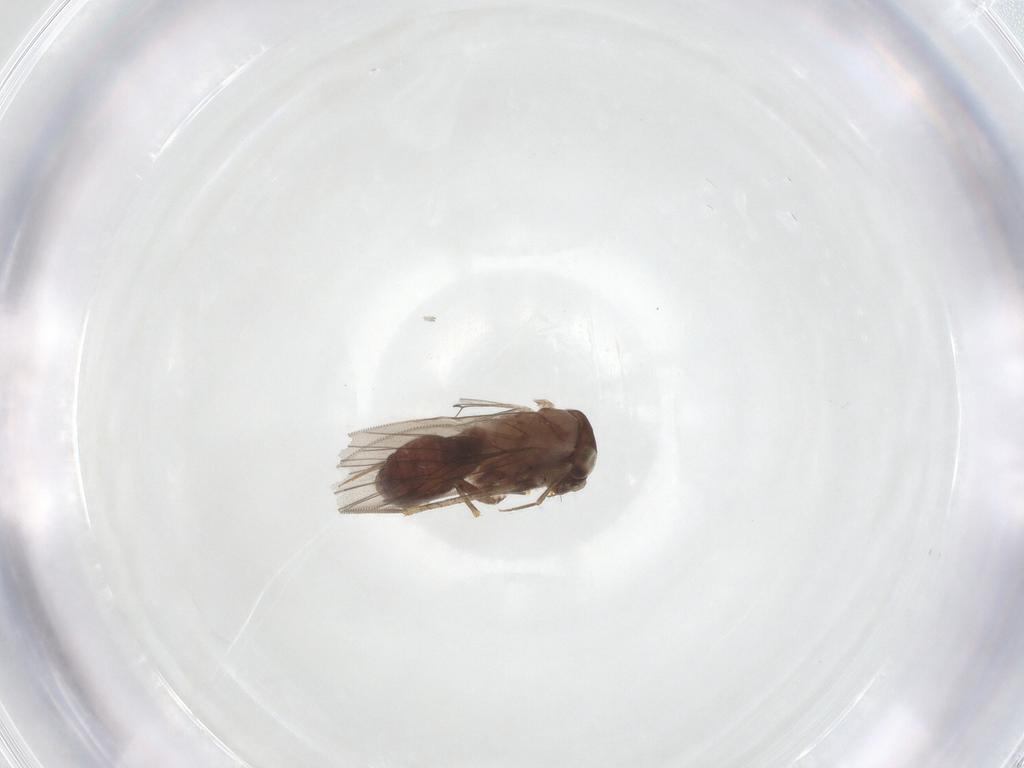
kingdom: Animalia
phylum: Arthropoda
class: Insecta
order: Psocodea
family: Lepidopsocidae
